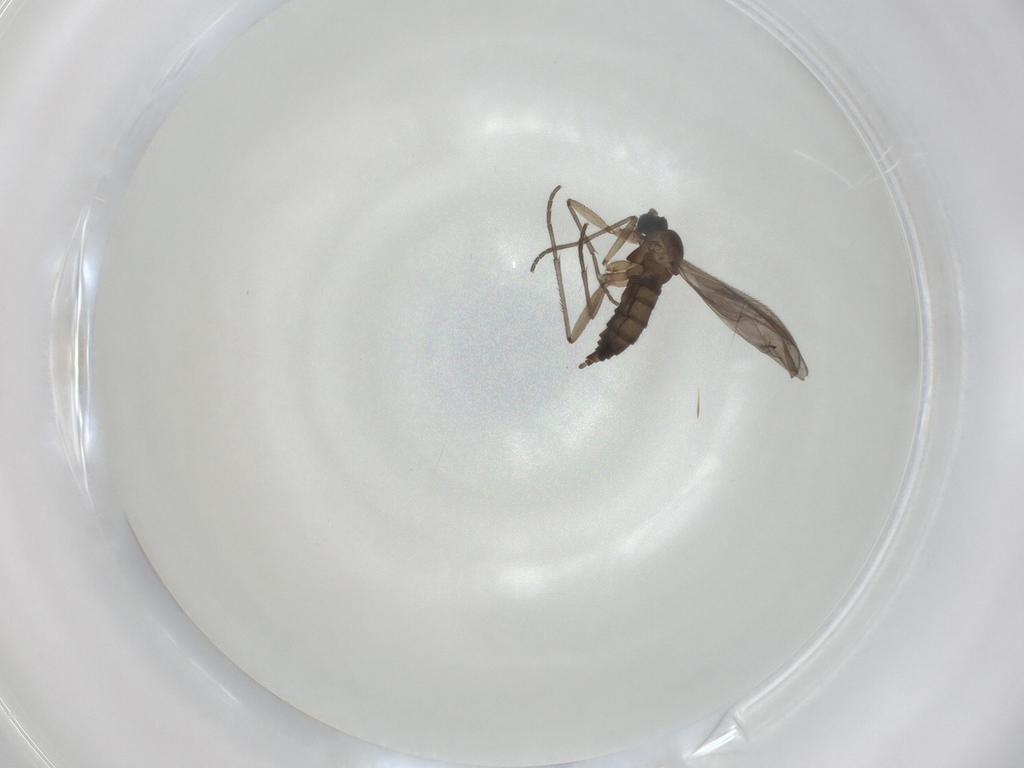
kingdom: Animalia
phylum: Arthropoda
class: Insecta
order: Diptera
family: Sciaridae
